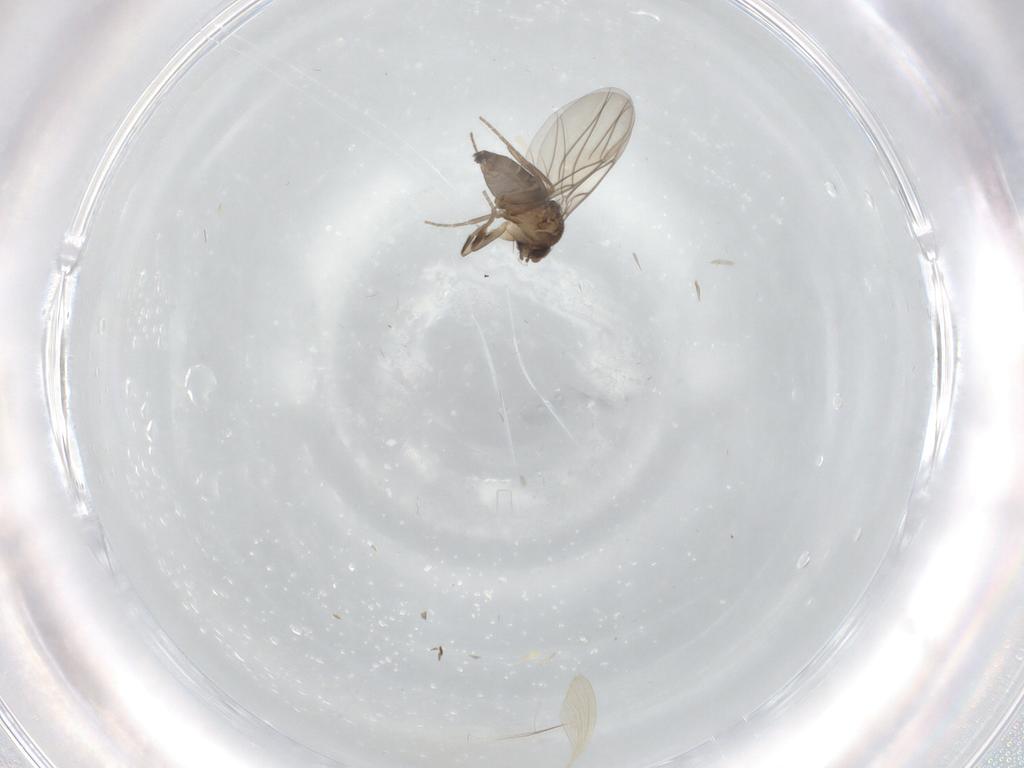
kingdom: Animalia
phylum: Arthropoda
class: Insecta
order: Diptera
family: Phoridae
